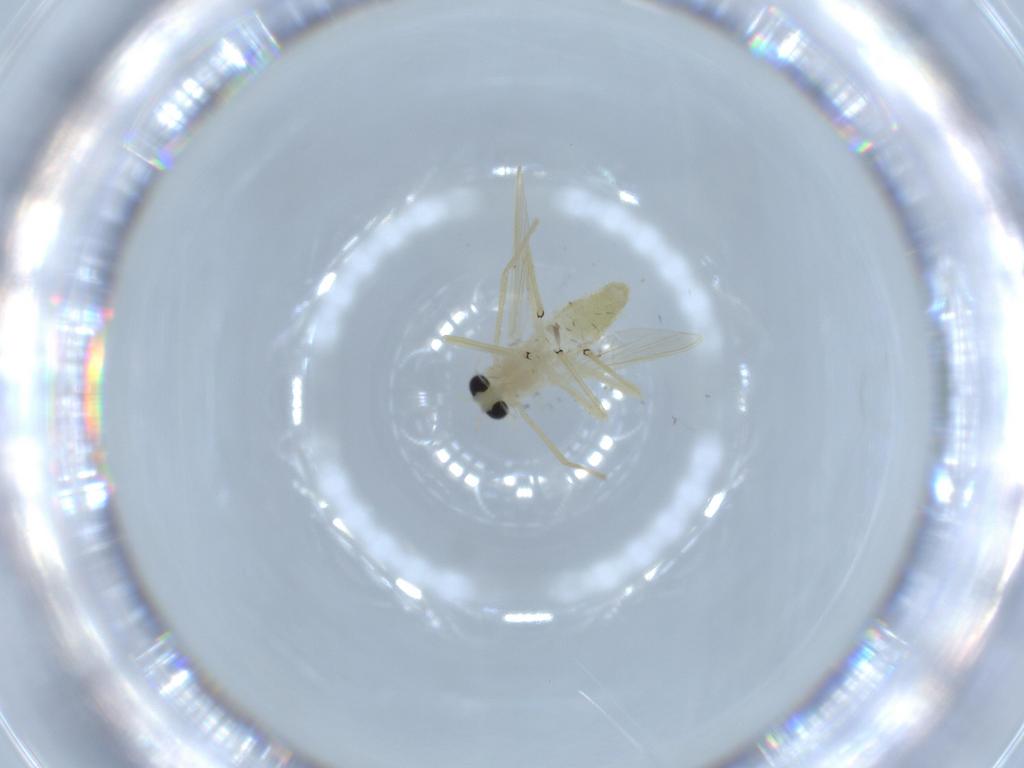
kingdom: Animalia
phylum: Arthropoda
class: Insecta
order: Diptera
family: Chironomidae
